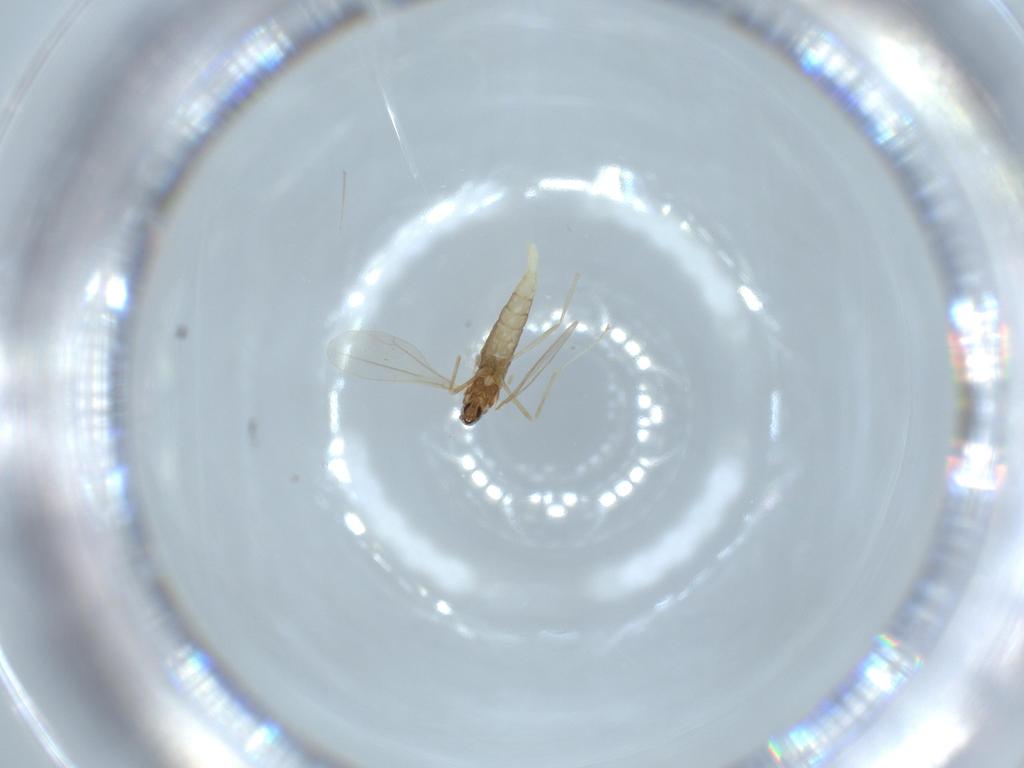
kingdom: Animalia
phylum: Arthropoda
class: Insecta
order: Diptera
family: Cecidomyiidae
